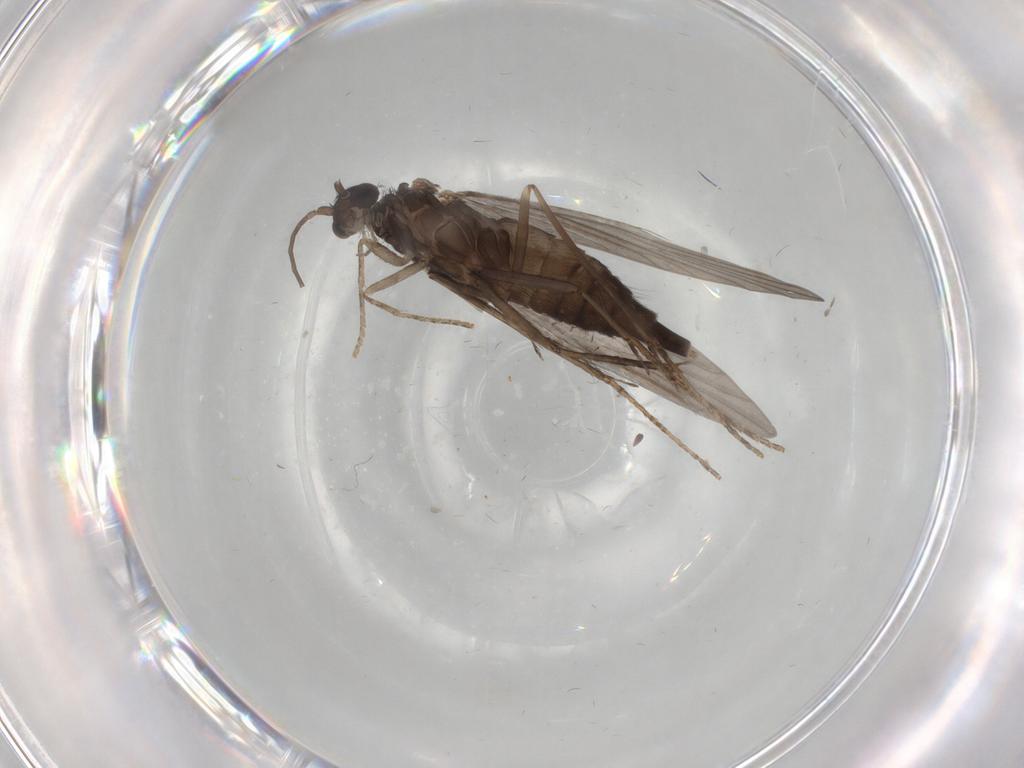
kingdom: Animalia
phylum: Arthropoda
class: Insecta
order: Trichoptera
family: Xiphocentronidae
